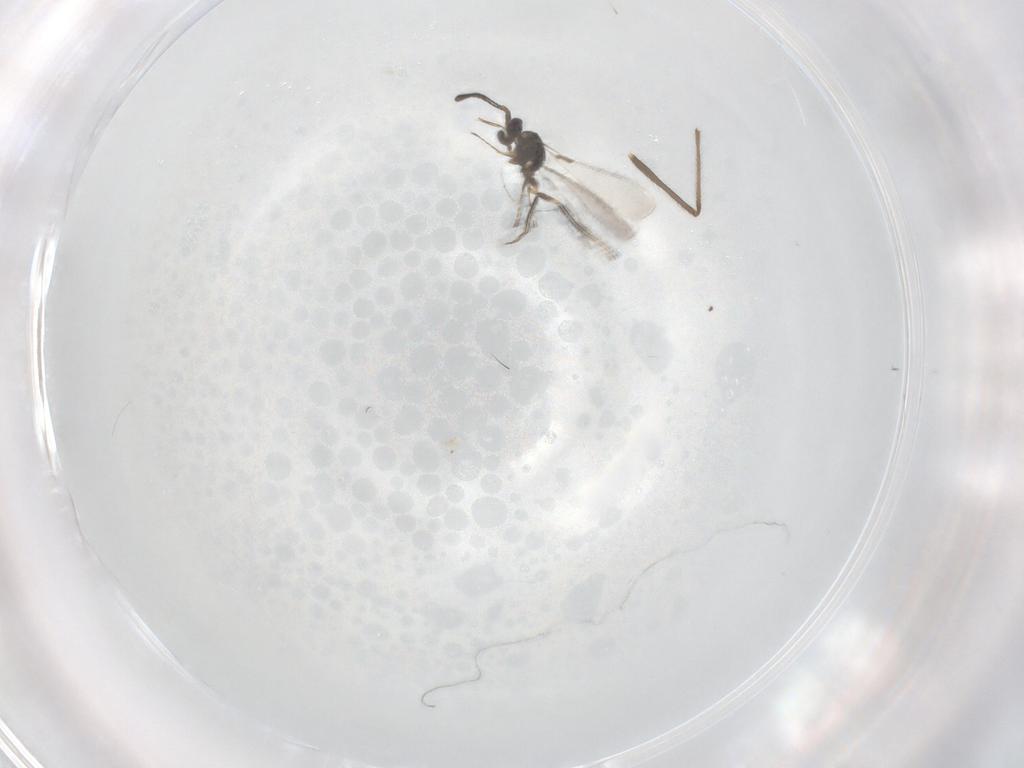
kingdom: Animalia
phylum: Arthropoda
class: Insecta
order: Hymenoptera
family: Mymaridae
